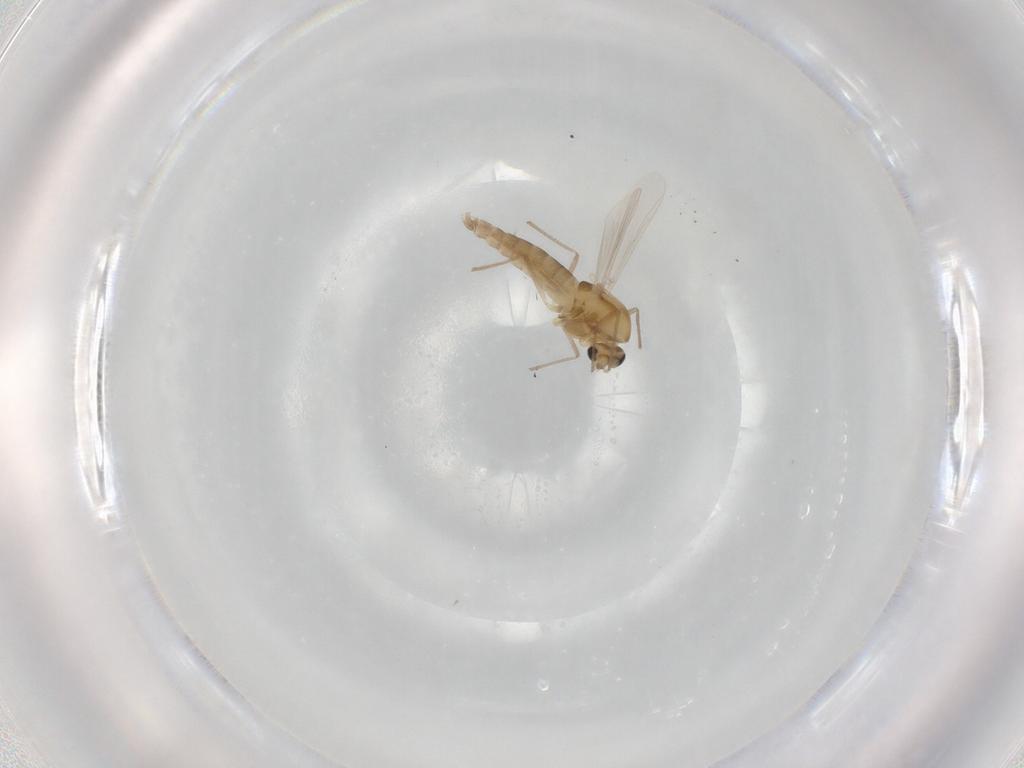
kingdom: Animalia
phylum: Arthropoda
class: Insecta
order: Diptera
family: Chironomidae
